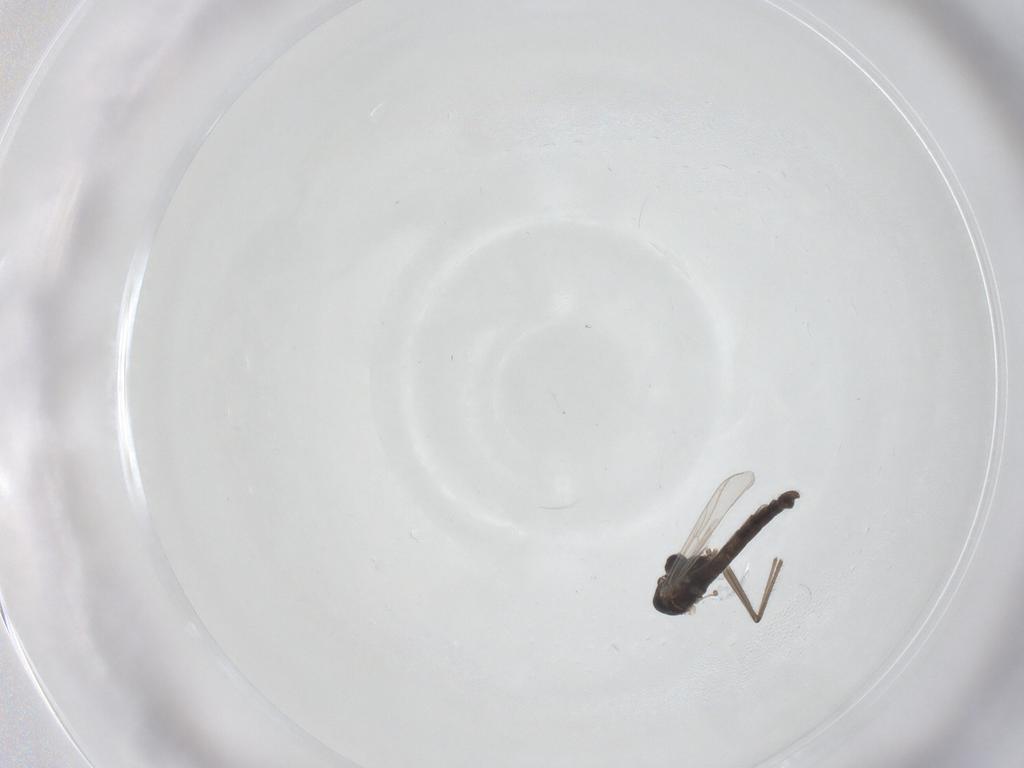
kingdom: Animalia
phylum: Arthropoda
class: Insecta
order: Diptera
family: Chironomidae
